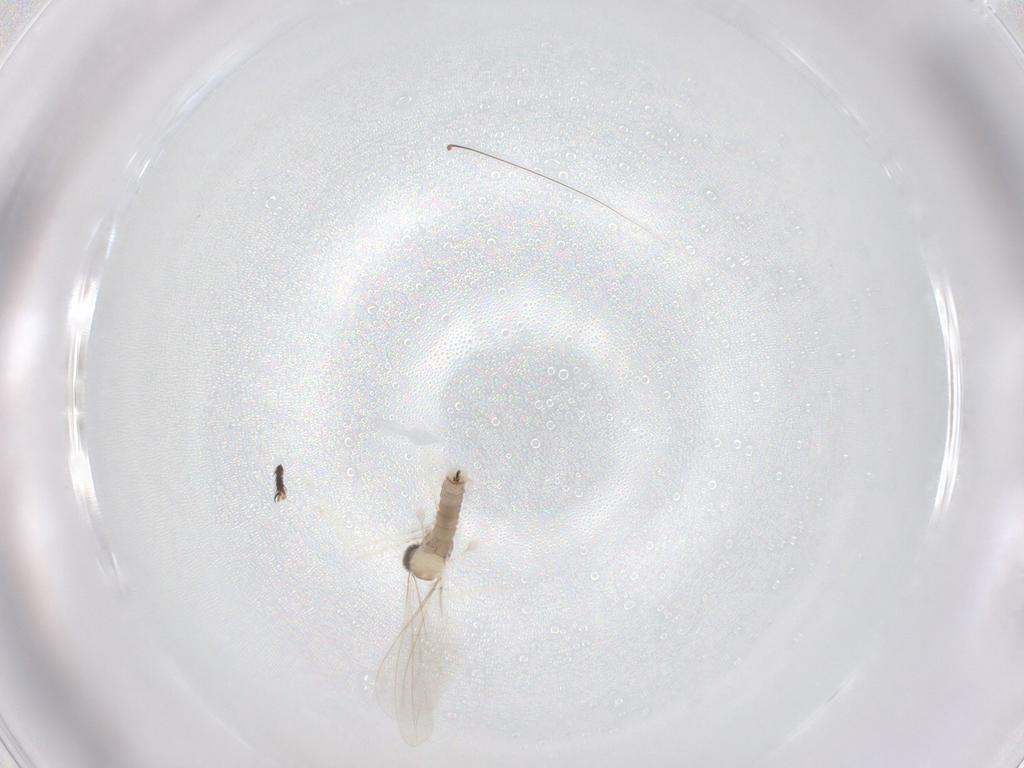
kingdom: Animalia
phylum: Arthropoda
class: Insecta
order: Diptera
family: Sciaridae
